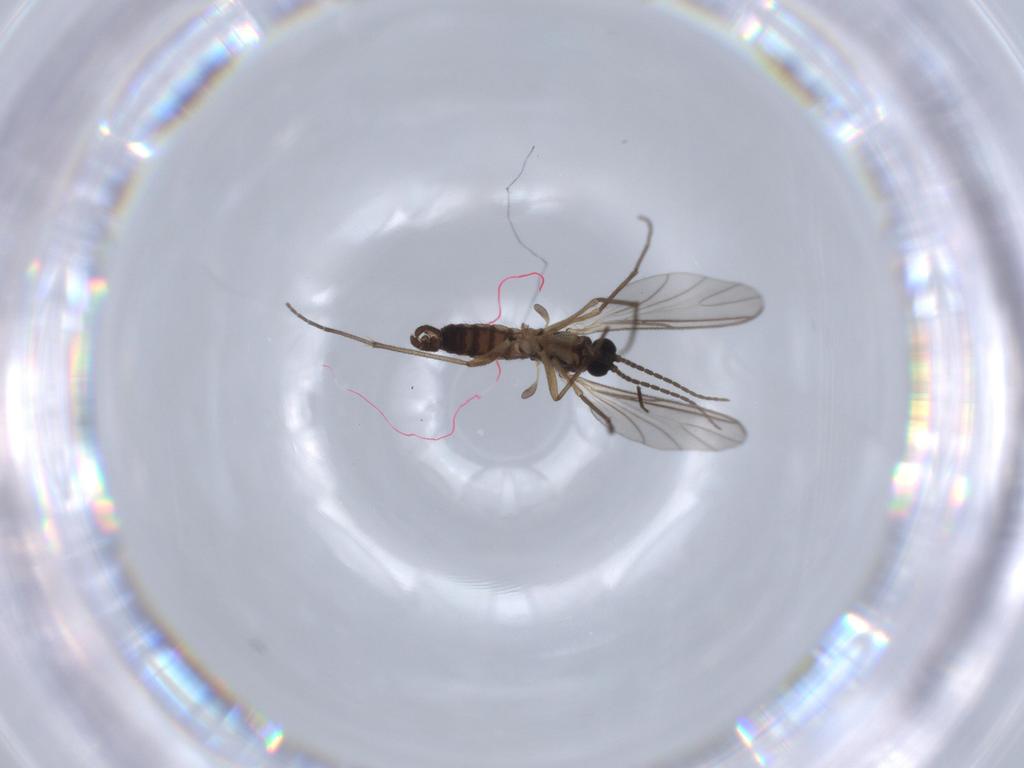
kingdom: Animalia
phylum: Arthropoda
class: Insecta
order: Diptera
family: Sciaridae
